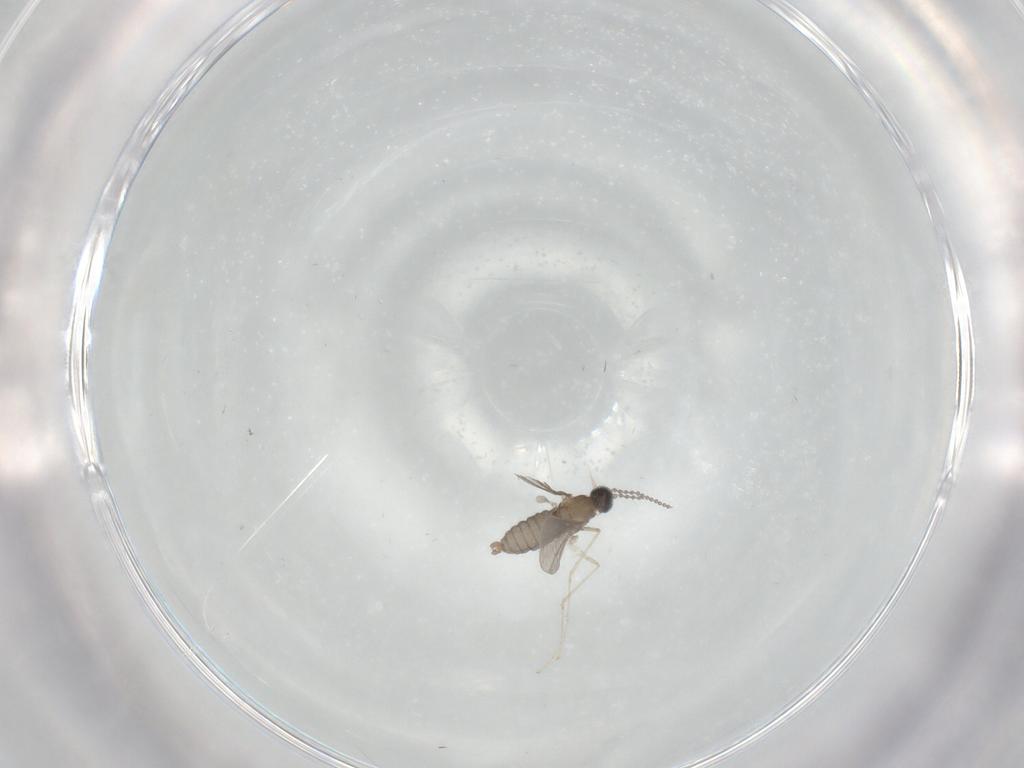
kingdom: Animalia
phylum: Arthropoda
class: Insecta
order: Diptera
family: Cecidomyiidae
